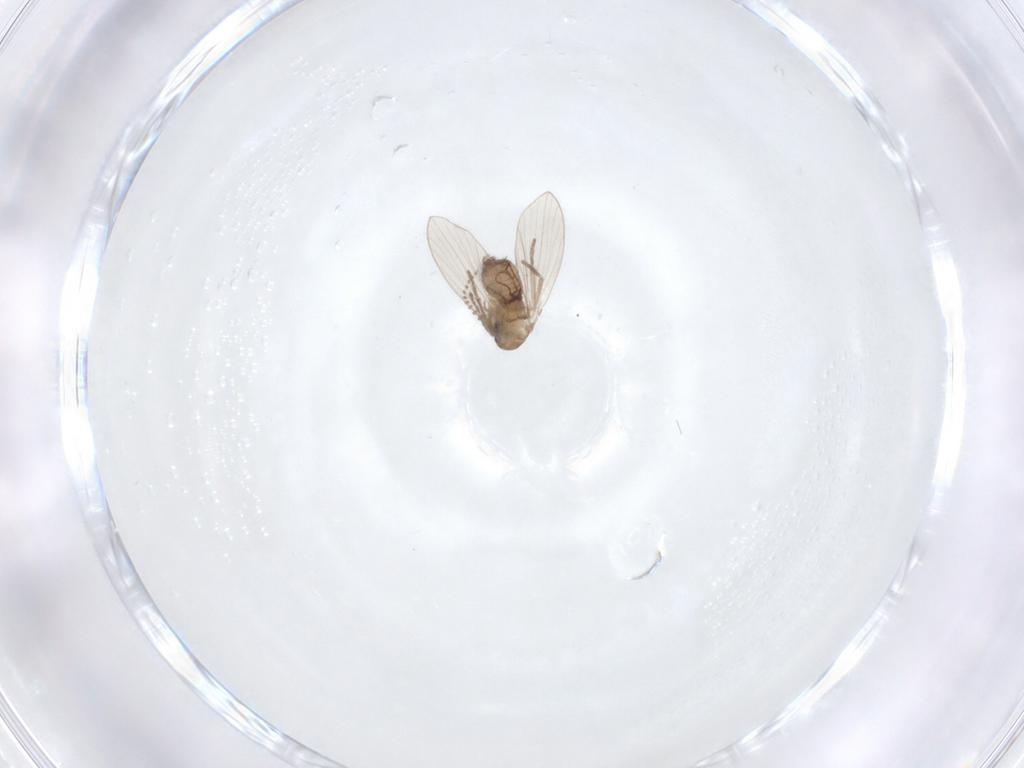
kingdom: Animalia
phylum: Arthropoda
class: Insecta
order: Diptera
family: Psychodidae
